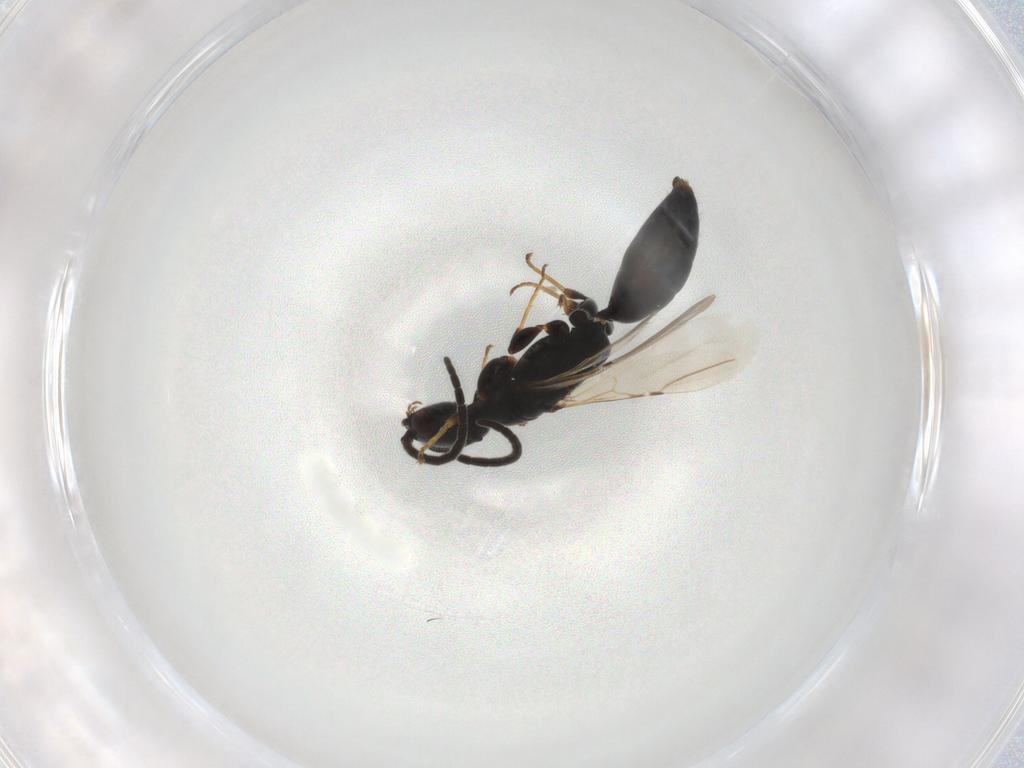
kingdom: Animalia
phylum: Arthropoda
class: Insecta
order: Hymenoptera
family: Bethylidae
